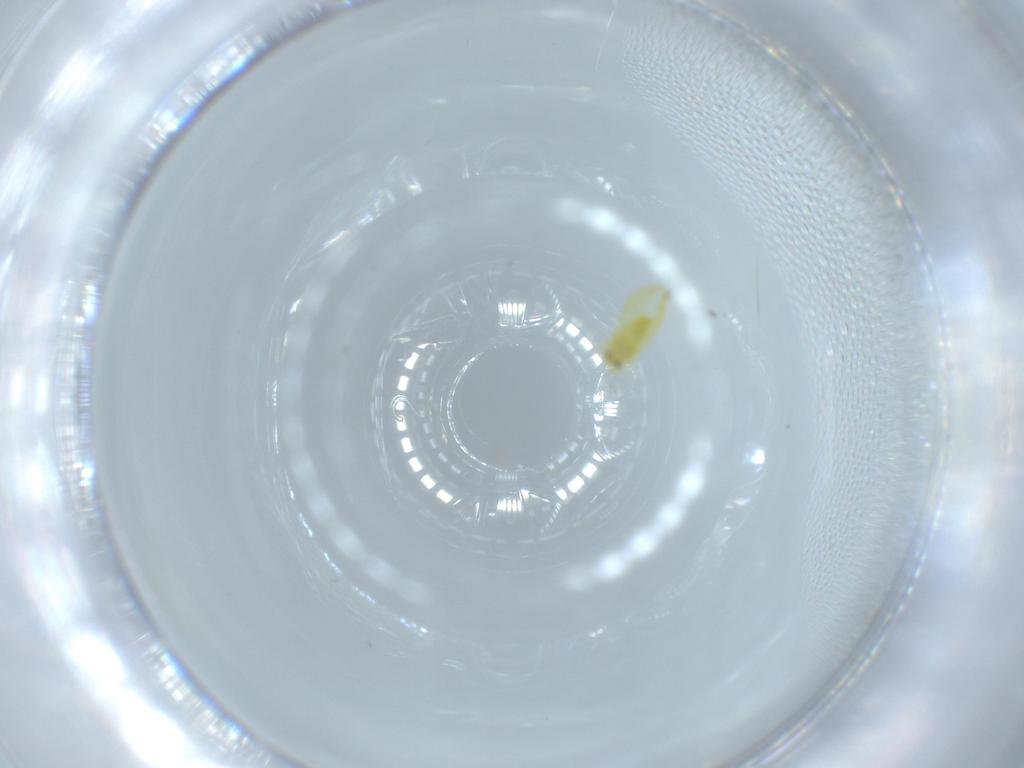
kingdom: Animalia
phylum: Arthropoda
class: Insecta
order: Hemiptera
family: Aleyrodidae
